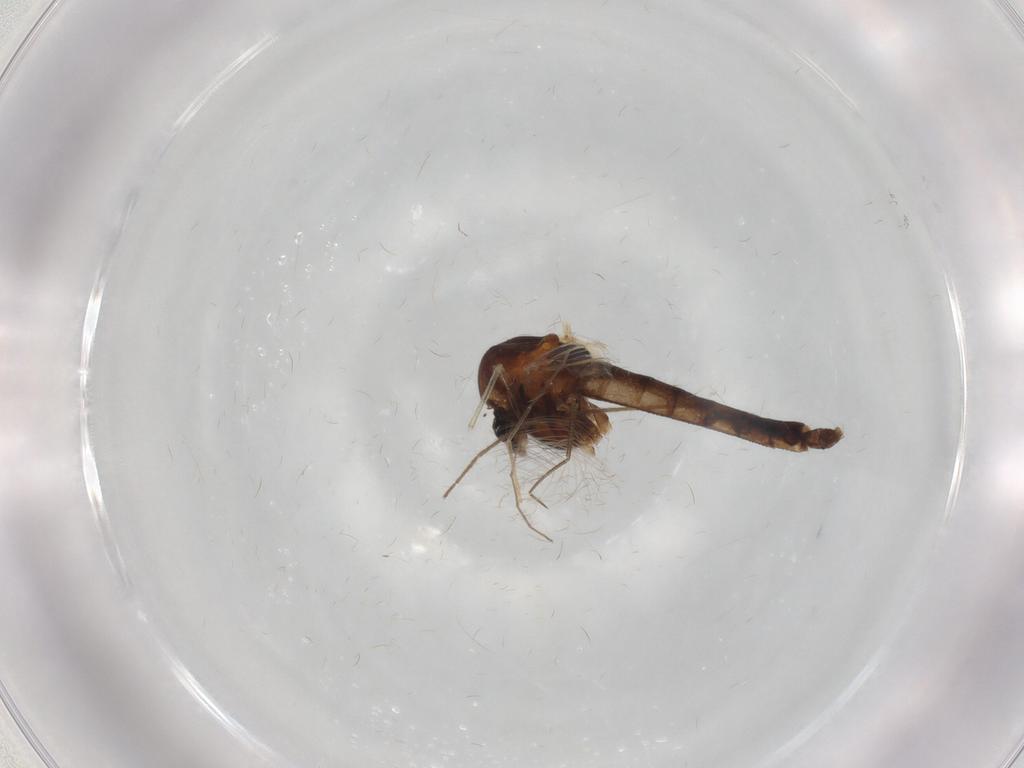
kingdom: Animalia
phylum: Arthropoda
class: Insecta
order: Diptera
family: Chironomidae
